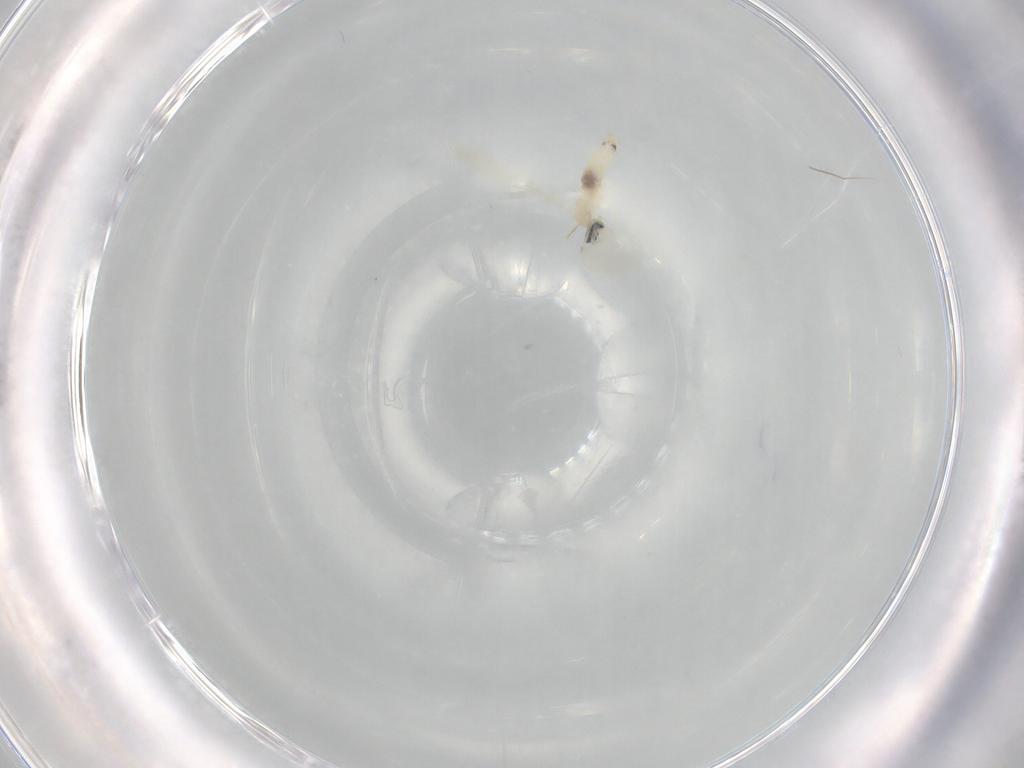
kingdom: Animalia
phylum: Arthropoda
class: Insecta
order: Diptera
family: Cecidomyiidae
